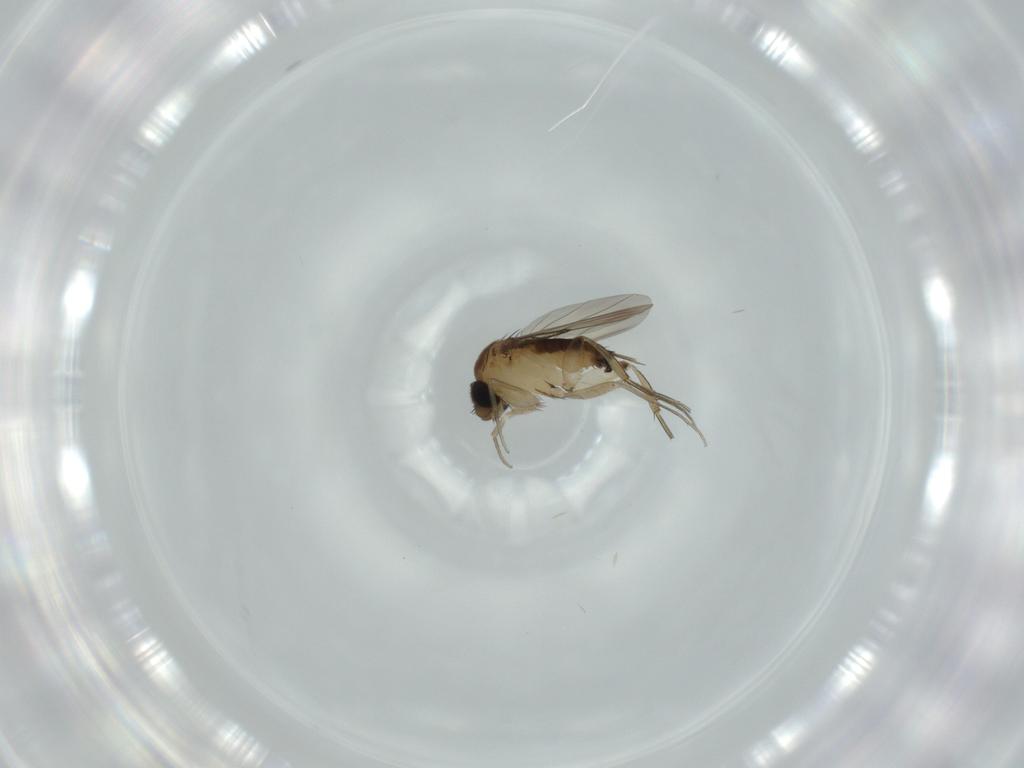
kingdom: Animalia
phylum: Arthropoda
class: Insecta
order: Diptera
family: Phoridae
